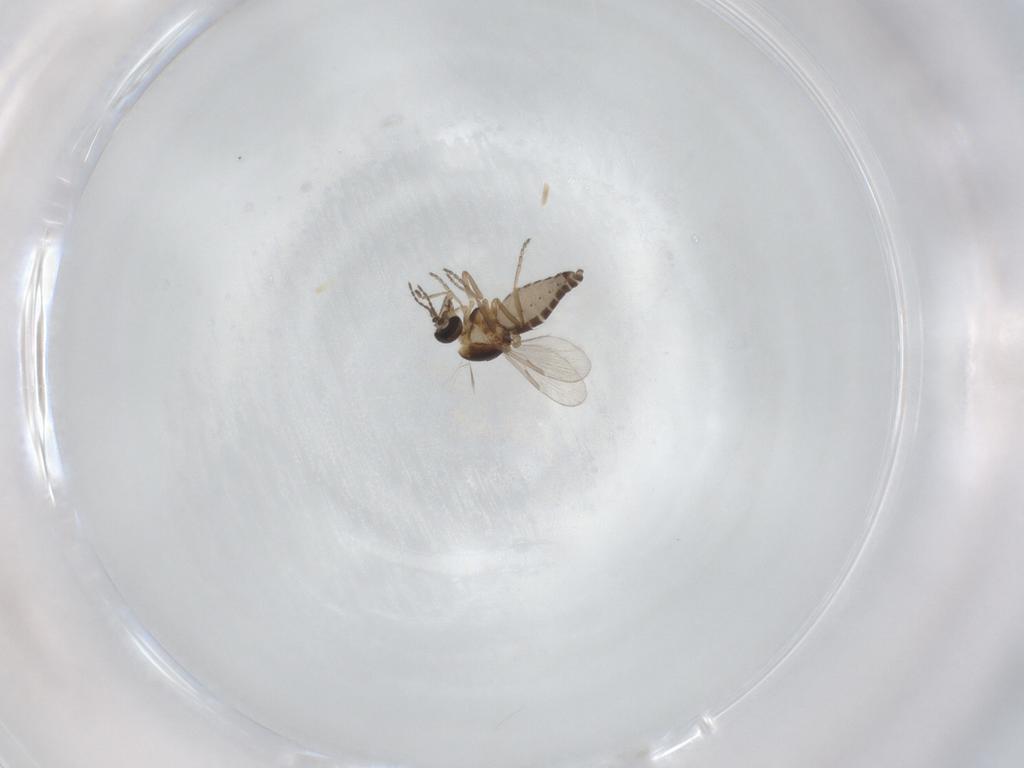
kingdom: Animalia
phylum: Arthropoda
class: Insecta
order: Diptera
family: Ceratopogonidae
